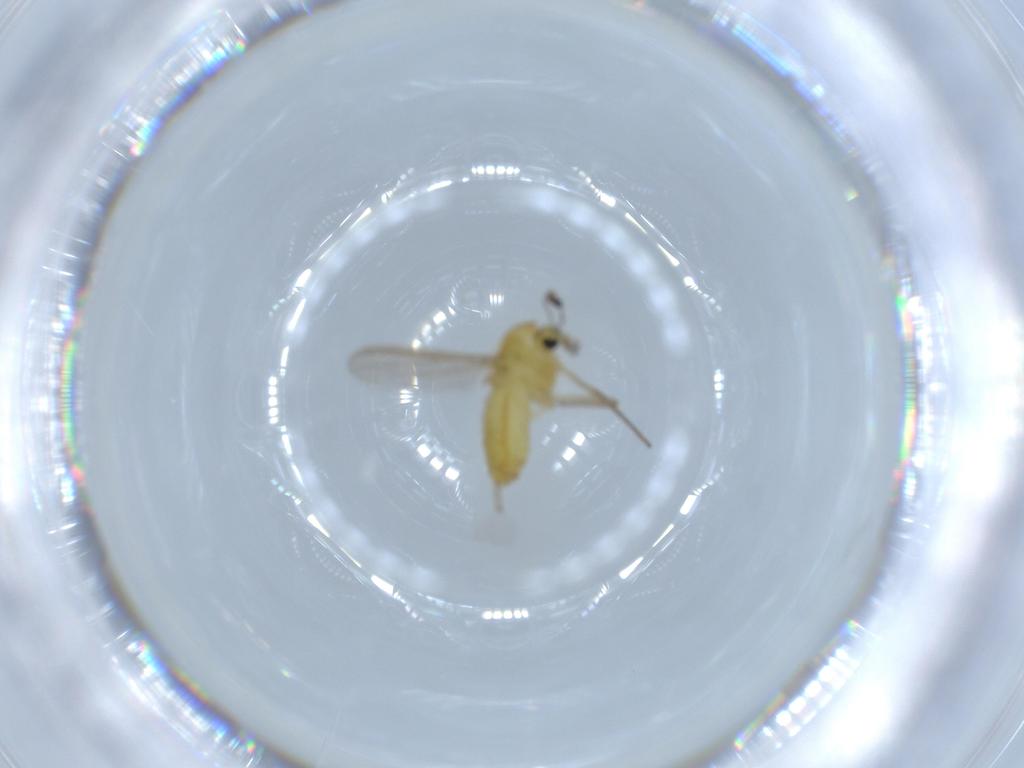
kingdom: Animalia
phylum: Arthropoda
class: Insecta
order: Diptera
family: Chironomidae
